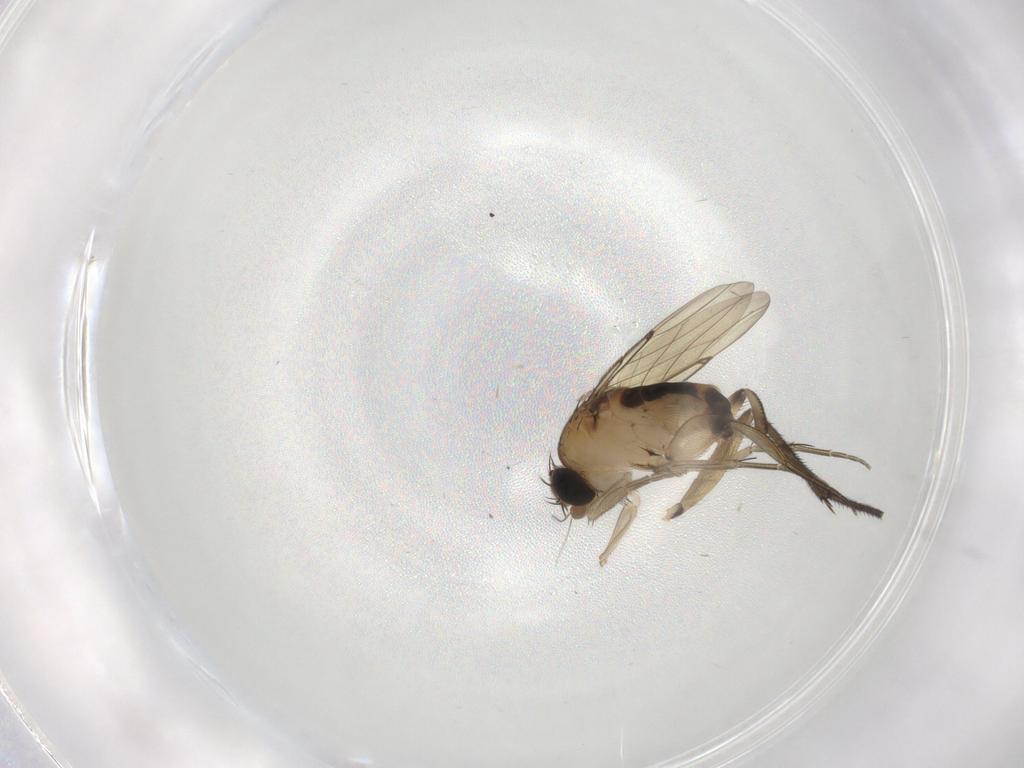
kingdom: Animalia
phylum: Arthropoda
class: Insecta
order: Diptera
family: Sciaridae
